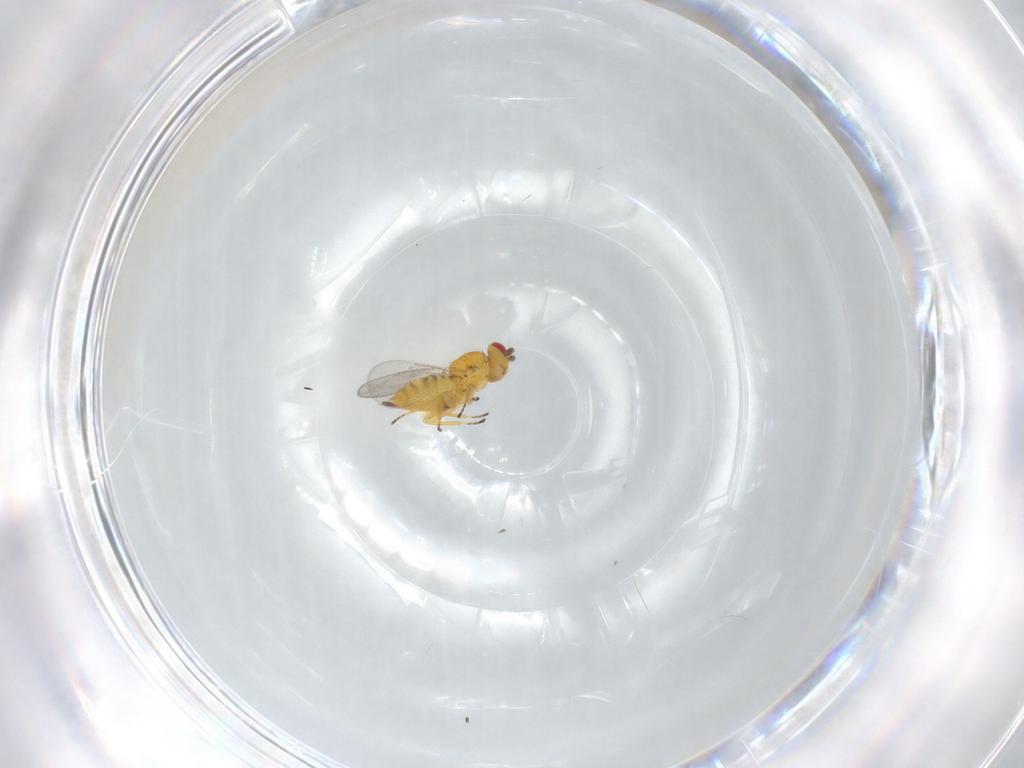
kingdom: Animalia
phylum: Arthropoda
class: Insecta
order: Hymenoptera
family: Eulophidae
